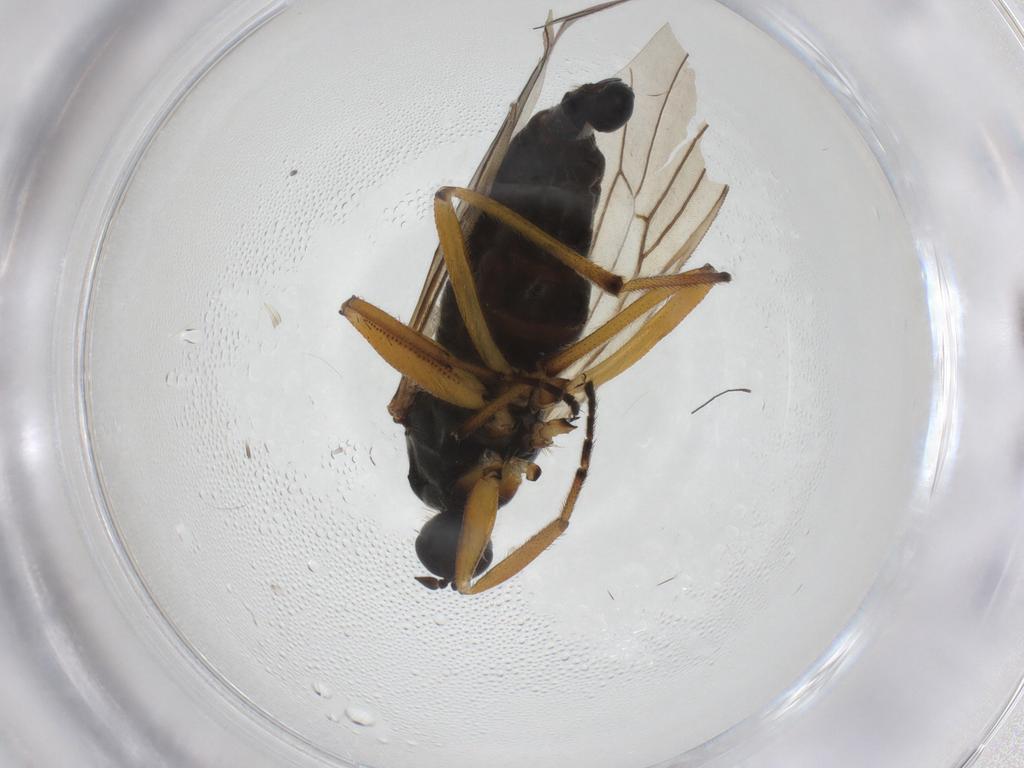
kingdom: Animalia
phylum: Arthropoda
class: Insecta
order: Diptera
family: Hybotidae
